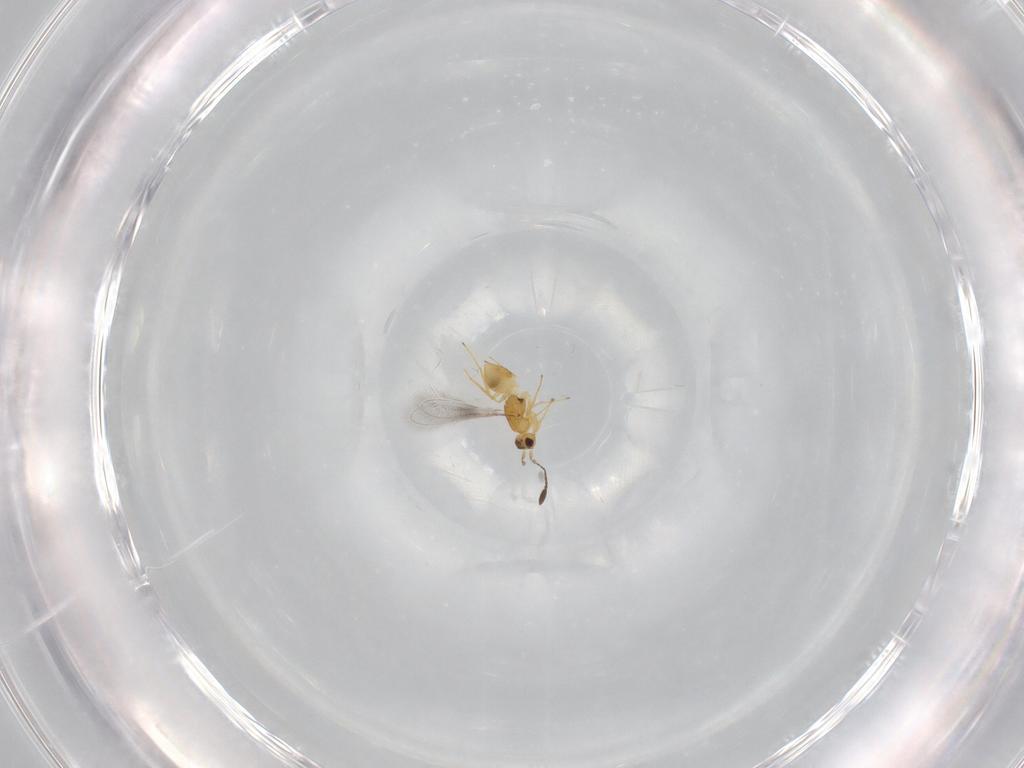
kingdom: Animalia
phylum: Arthropoda
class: Insecta
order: Hymenoptera
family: Mymaridae
